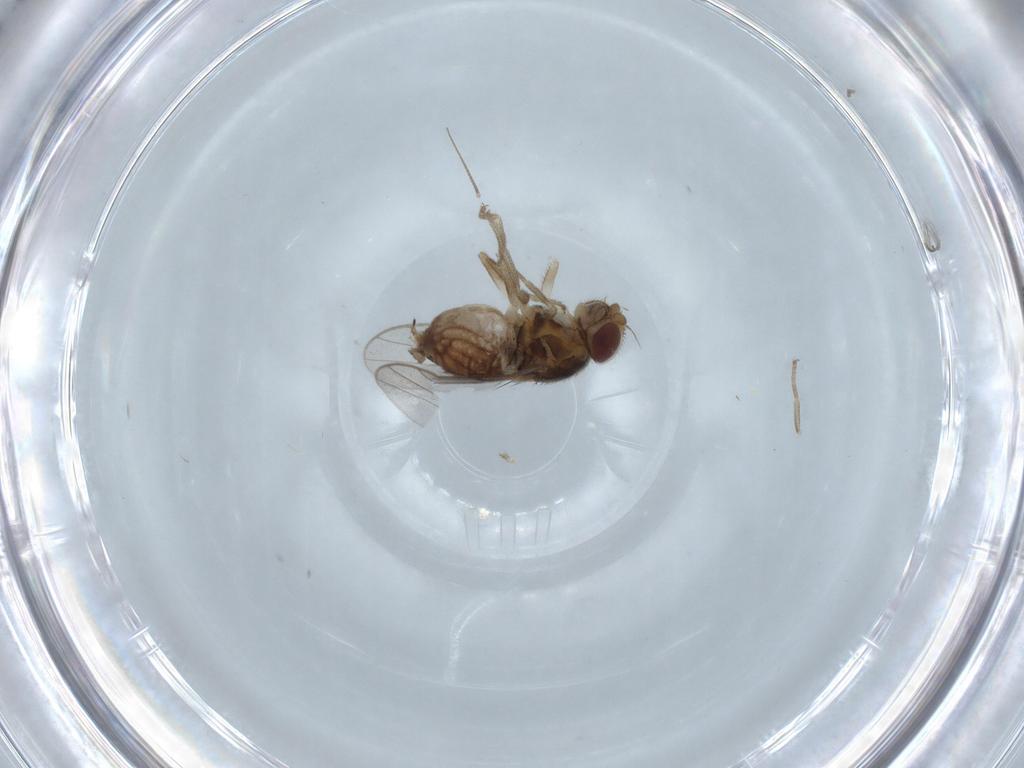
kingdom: Animalia
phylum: Arthropoda
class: Insecta
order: Diptera
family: Chloropidae
